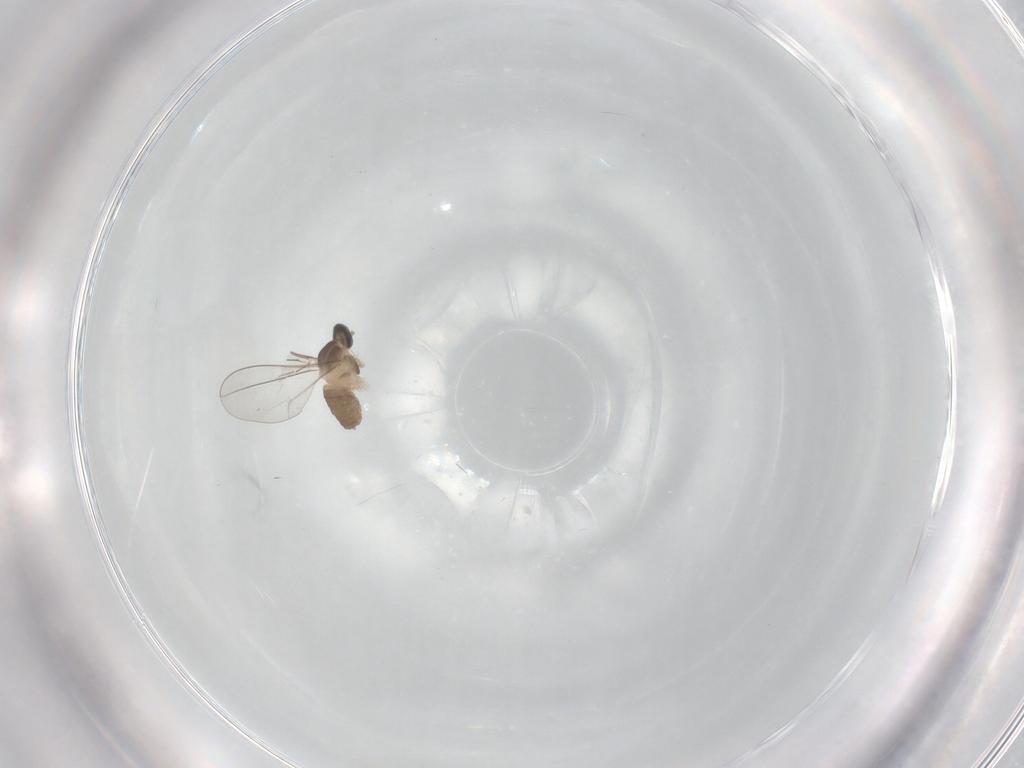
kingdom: Animalia
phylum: Arthropoda
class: Insecta
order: Diptera
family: Cecidomyiidae
